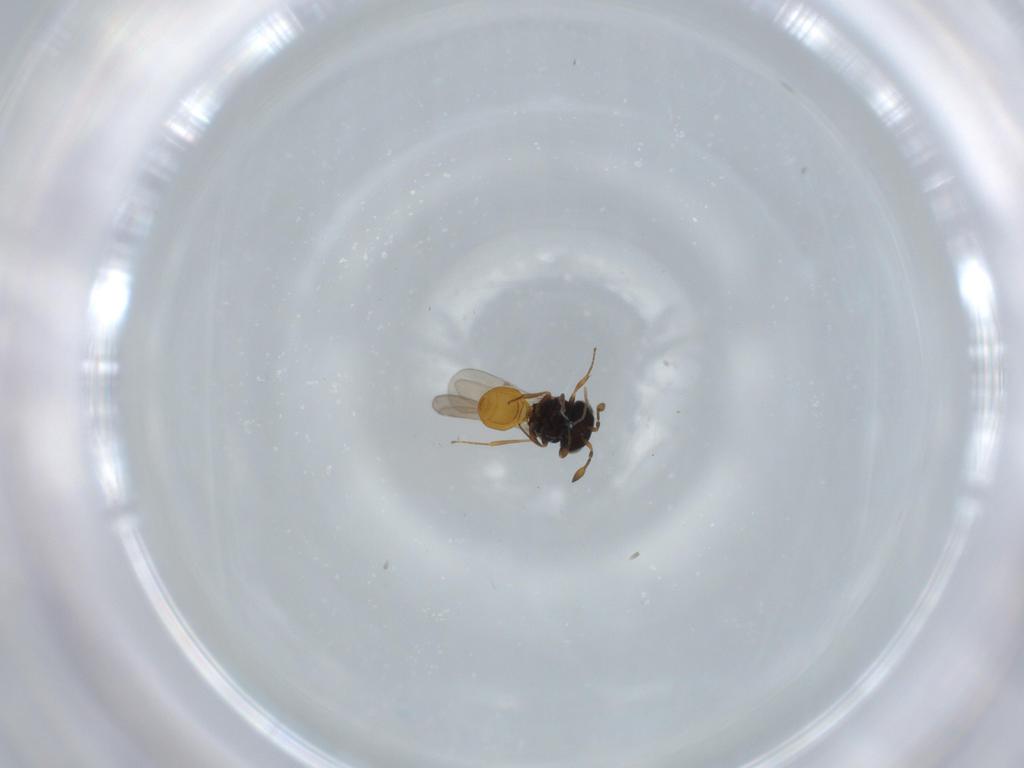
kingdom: Animalia
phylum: Arthropoda
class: Insecta
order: Hymenoptera
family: Scelionidae
